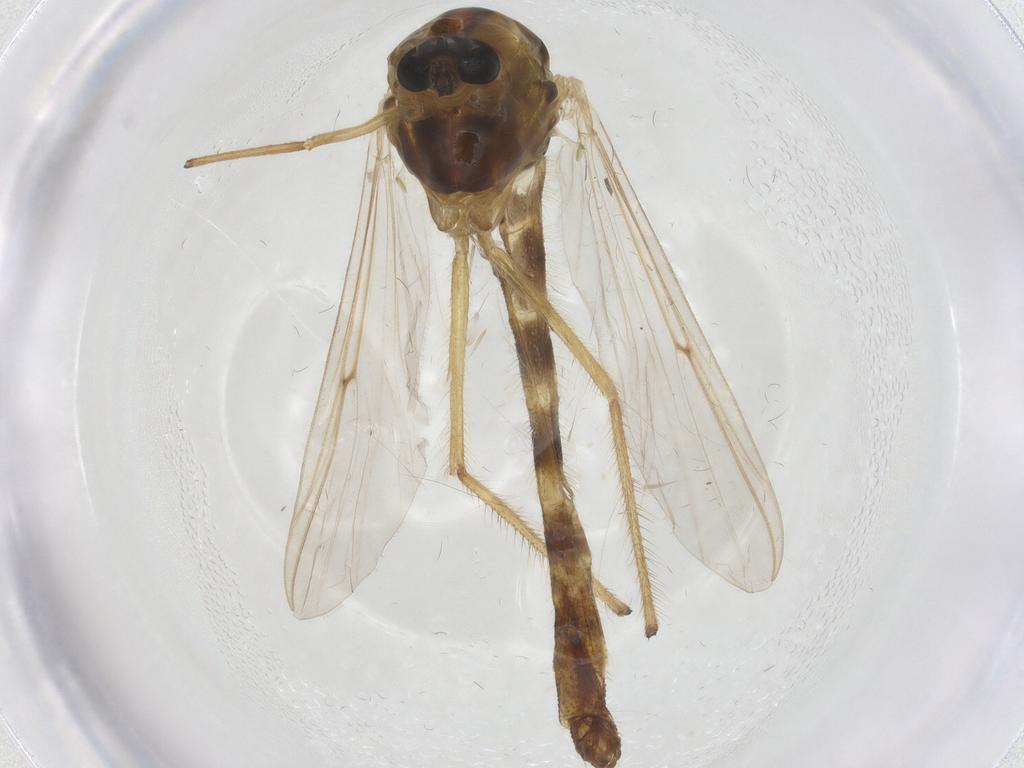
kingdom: Animalia
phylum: Arthropoda
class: Insecta
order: Diptera
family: Chironomidae
